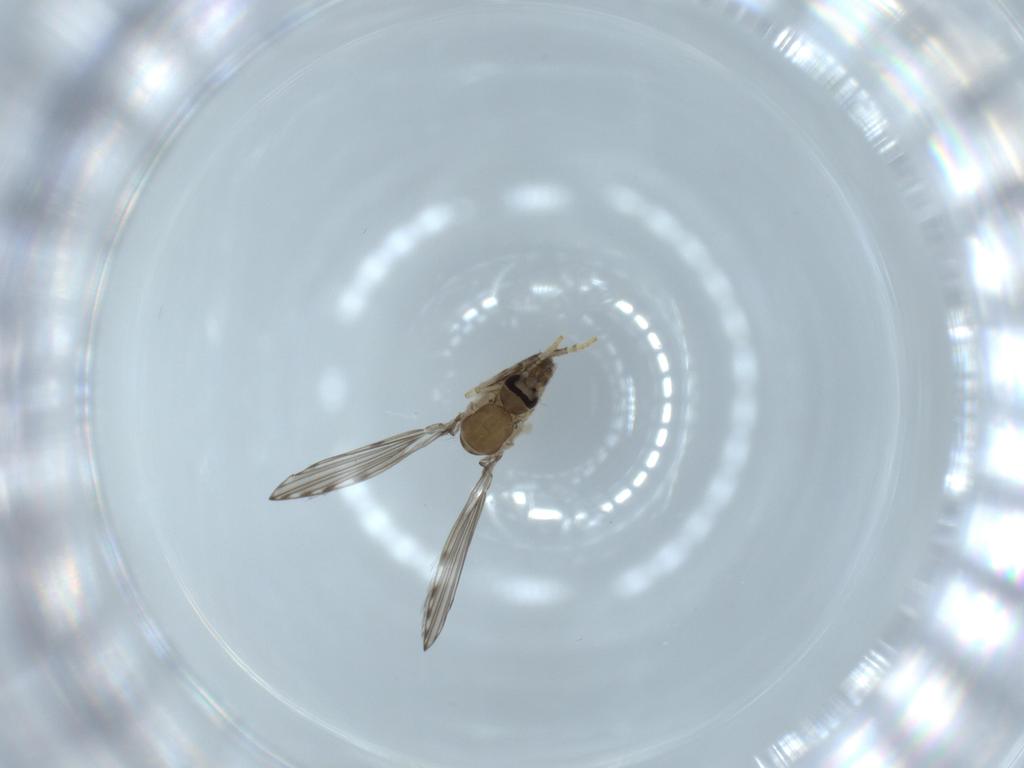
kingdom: Animalia
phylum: Arthropoda
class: Insecta
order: Diptera
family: Psychodidae
